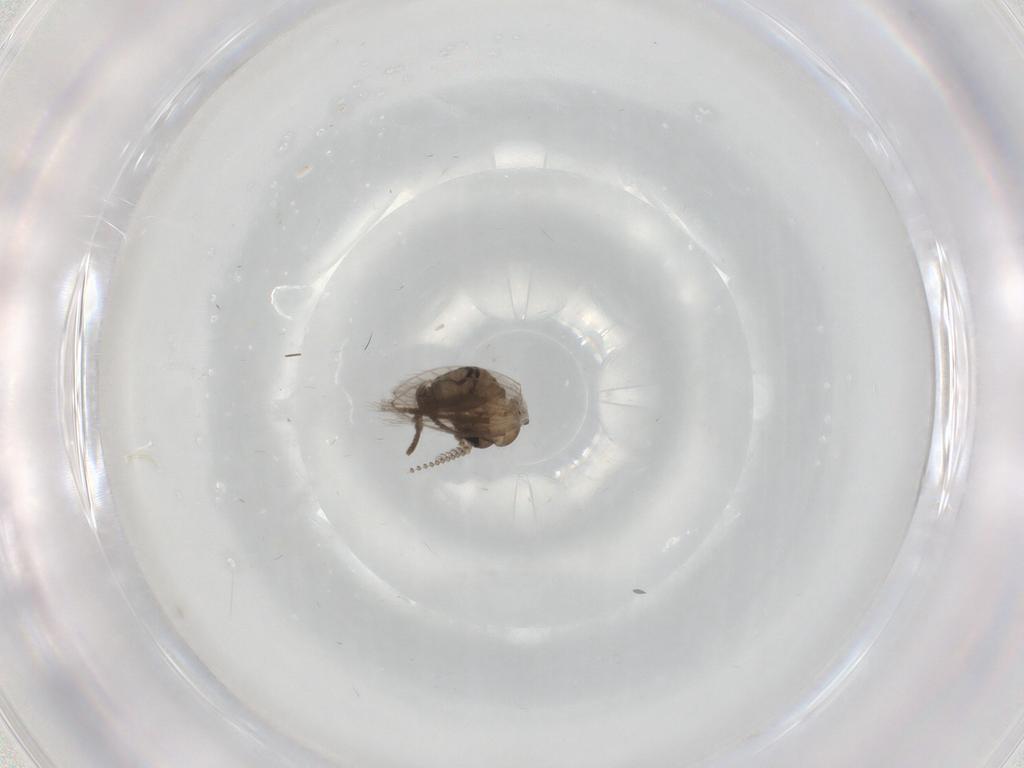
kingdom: Animalia
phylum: Arthropoda
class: Insecta
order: Diptera
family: Psychodidae
